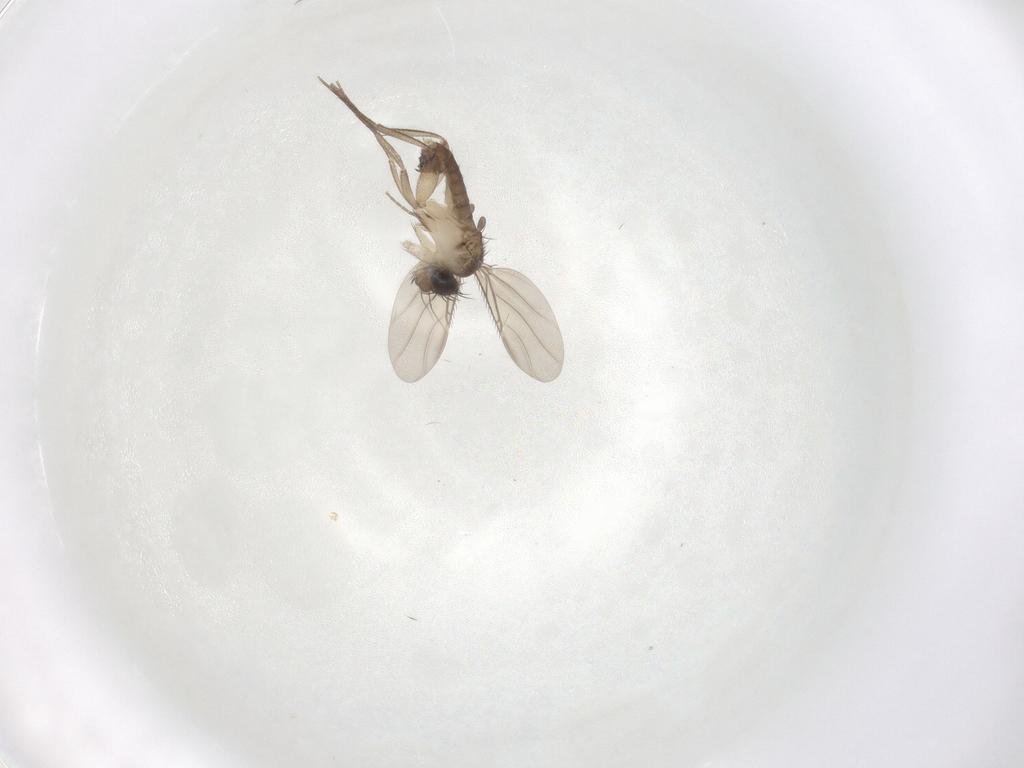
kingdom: Animalia
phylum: Arthropoda
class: Insecta
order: Diptera
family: Phoridae
